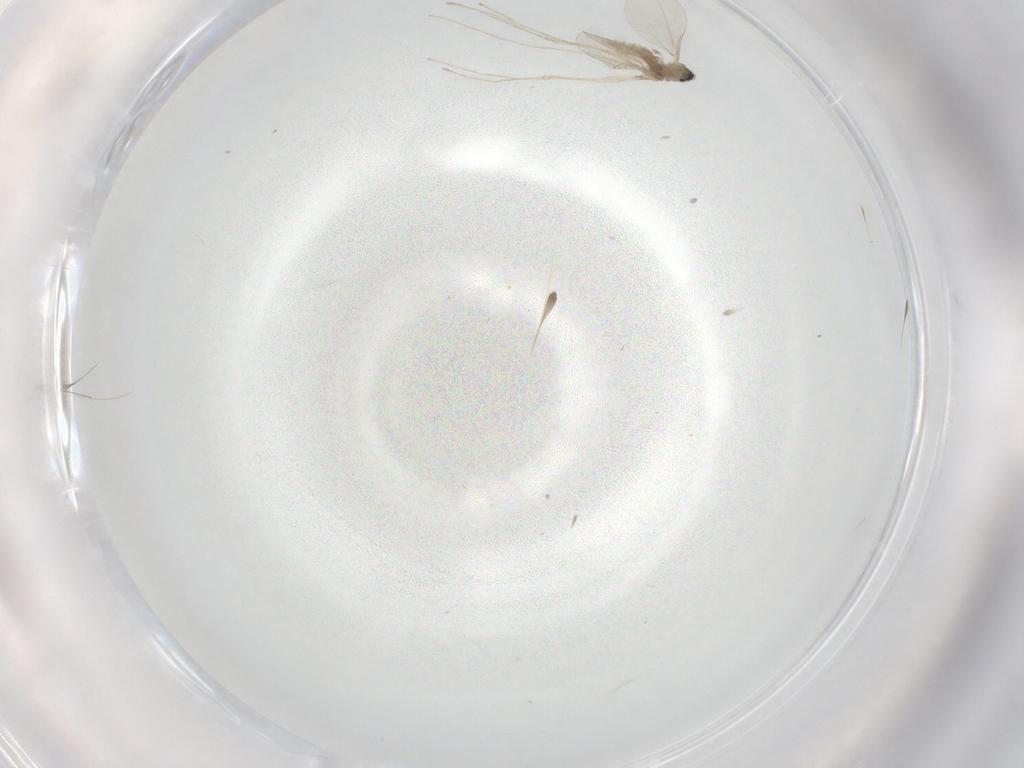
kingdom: Animalia
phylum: Arthropoda
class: Insecta
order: Diptera
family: Cecidomyiidae
